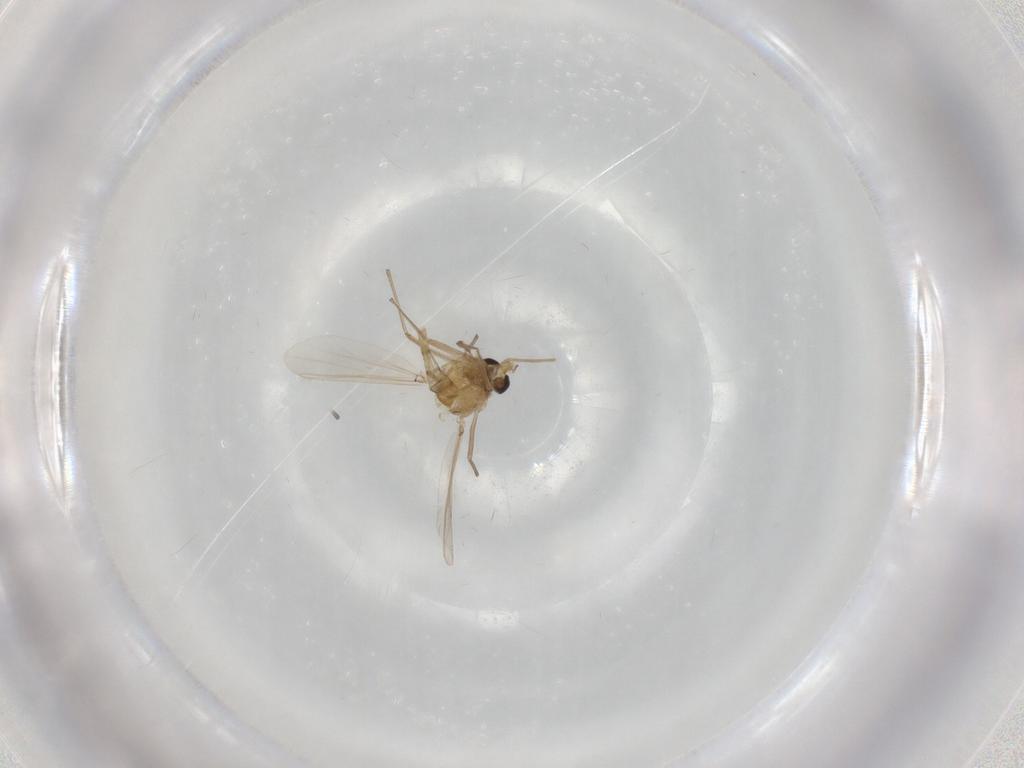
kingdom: Animalia
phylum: Arthropoda
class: Insecta
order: Diptera
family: Chironomidae
